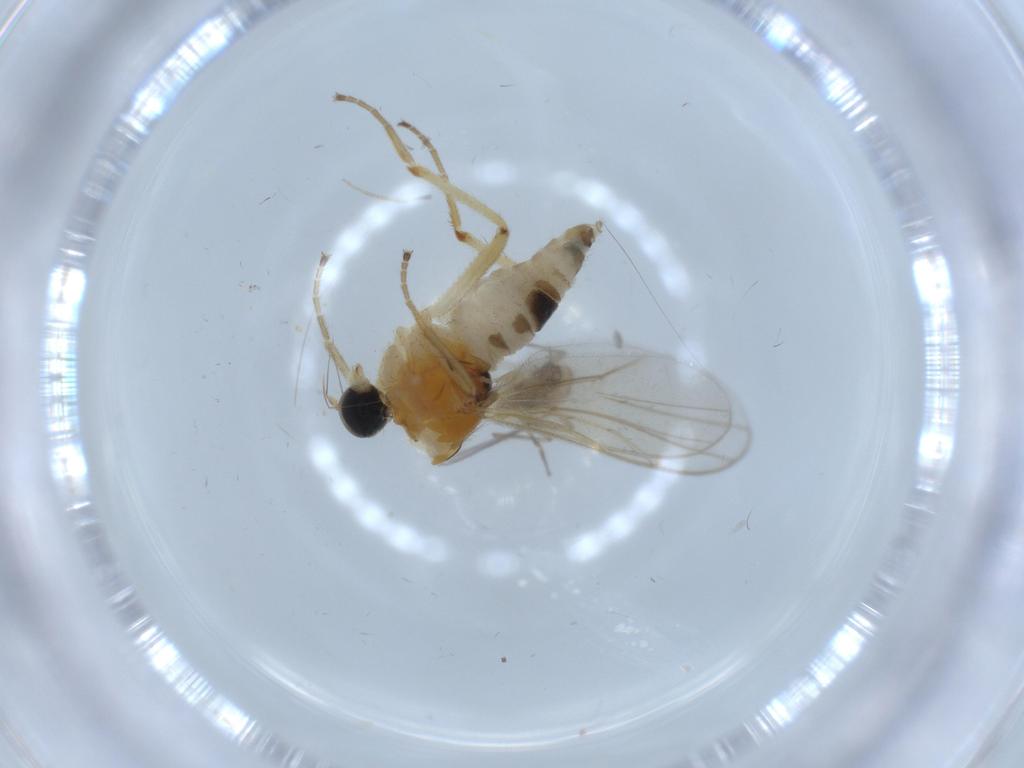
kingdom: Animalia
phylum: Arthropoda
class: Insecta
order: Diptera
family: Hybotidae
